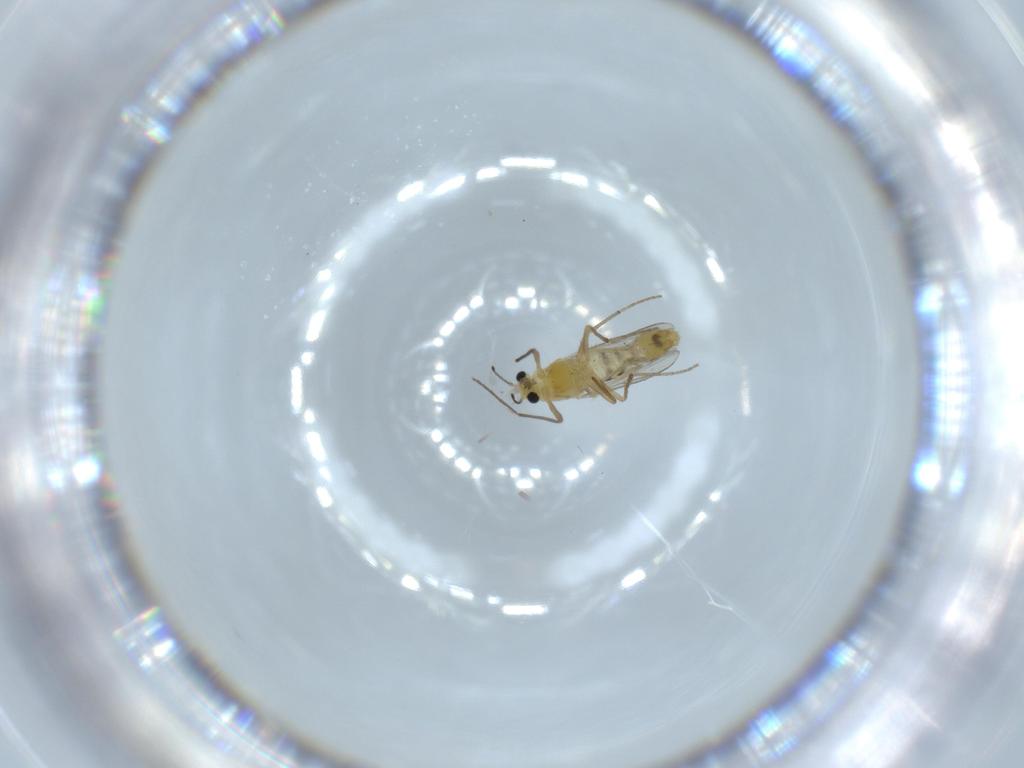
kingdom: Animalia
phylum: Arthropoda
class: Insecta
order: Diptera
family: Chironomidae
